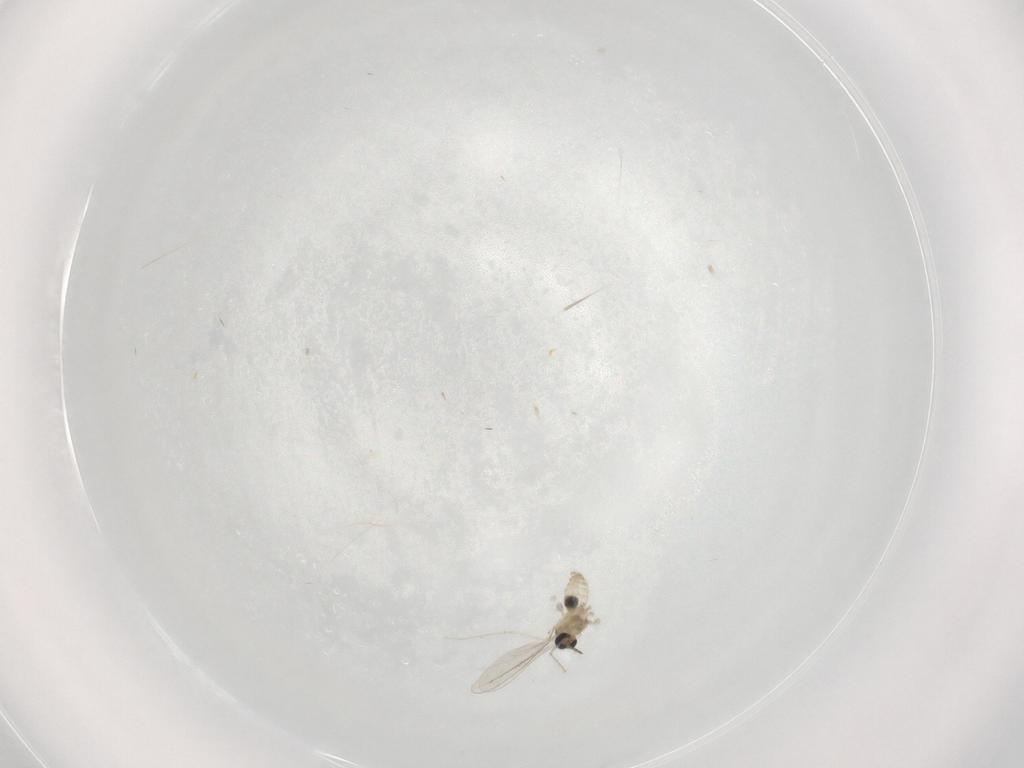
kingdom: Animalia
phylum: Arthropoda
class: Insecta
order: Diptera
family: Cecidomyiidae
